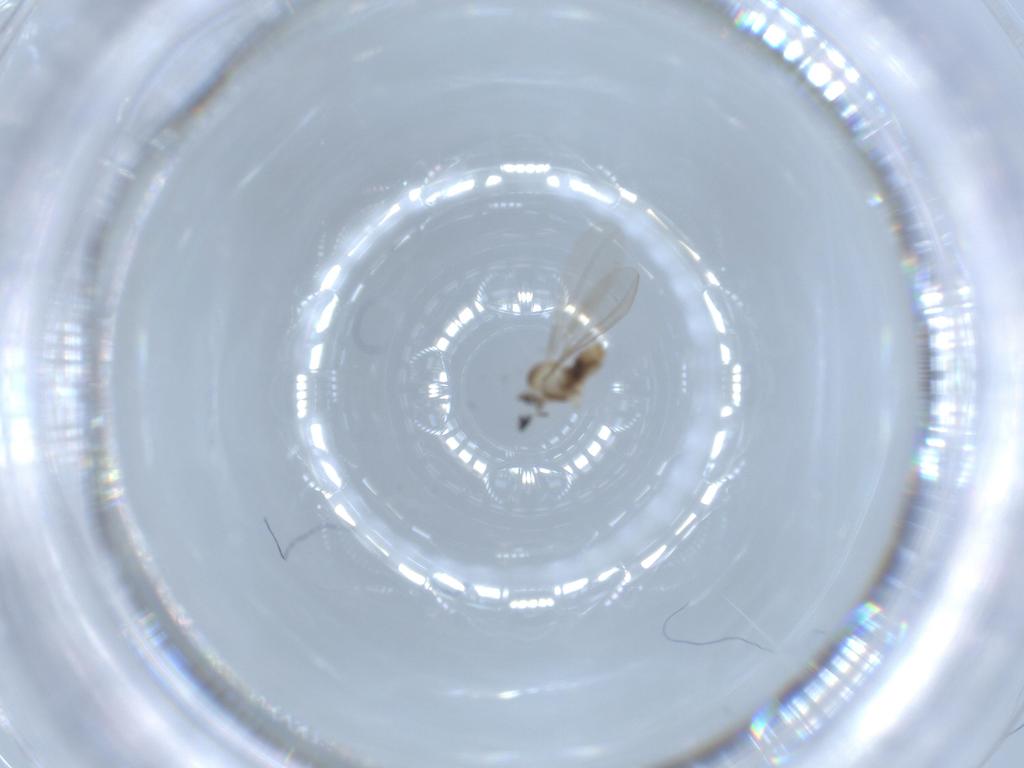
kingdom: Animalia
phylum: Arthropoda
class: Insecta
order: Diptera
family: Cecidomyiidae
